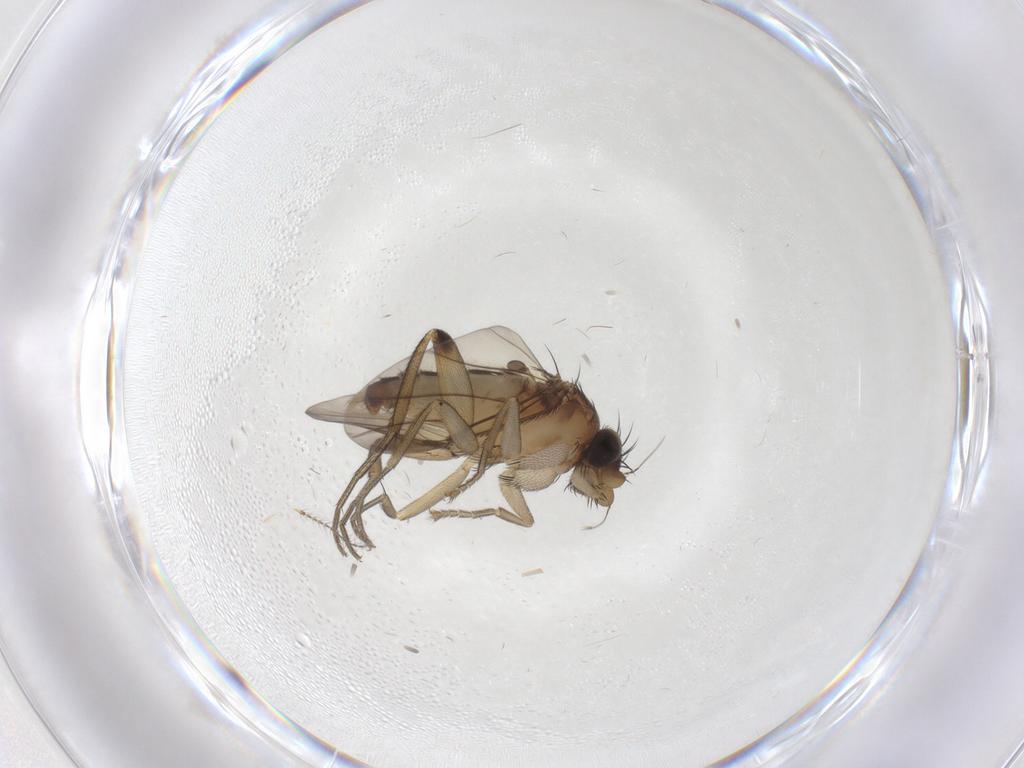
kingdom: Animalia
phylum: Arthropoda
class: Insecta
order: Diptera
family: Phoridae
